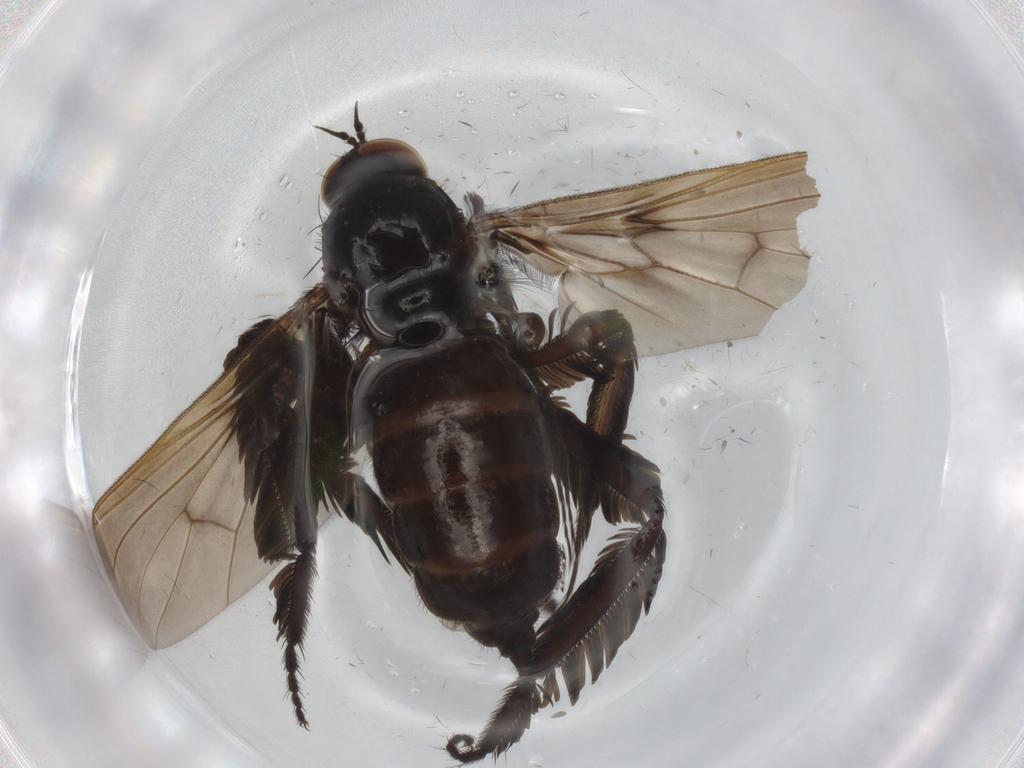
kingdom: Animalia
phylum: Arthropoda
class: Insecta
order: Diptera
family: Empididae
